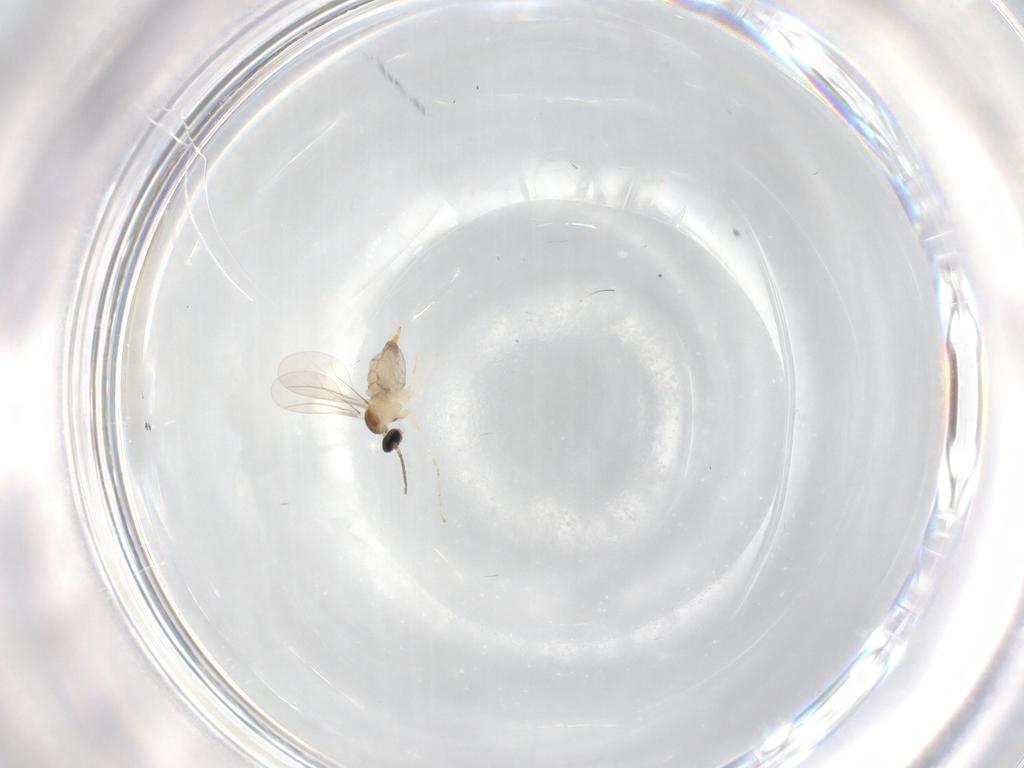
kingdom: Animalia
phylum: Arthropoda
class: Insecta
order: Diptera
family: Cecidomyiidae
